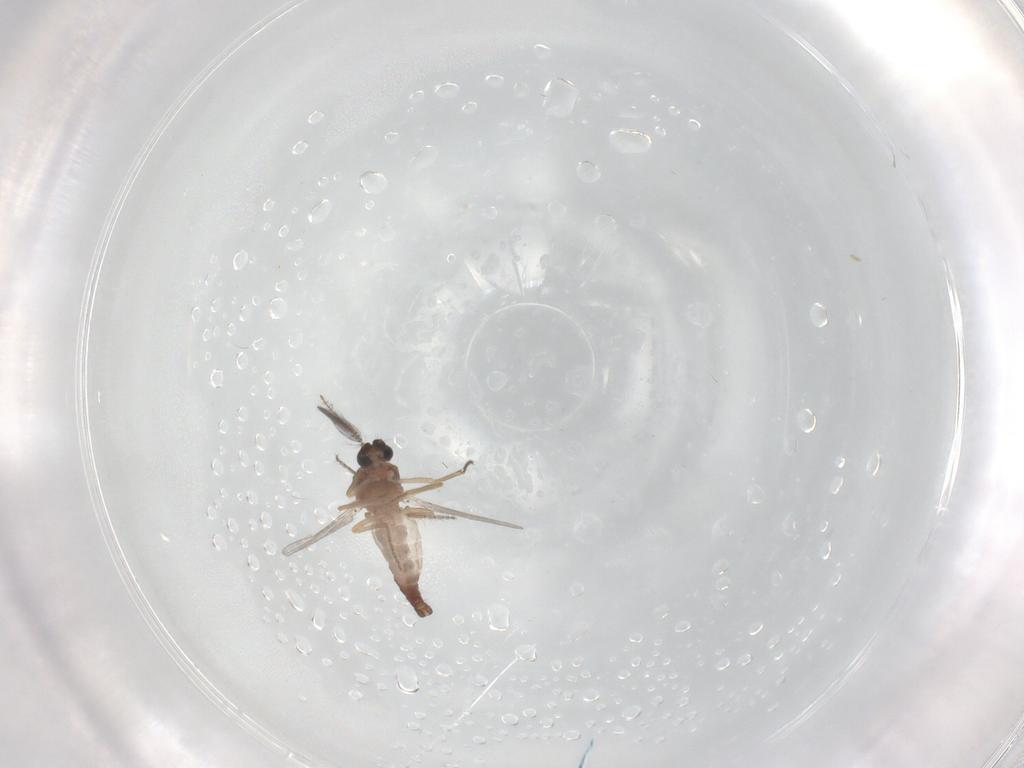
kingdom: Animalia
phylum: Arthropoda
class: Insecta
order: Diptera
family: Ceratopogonidae
